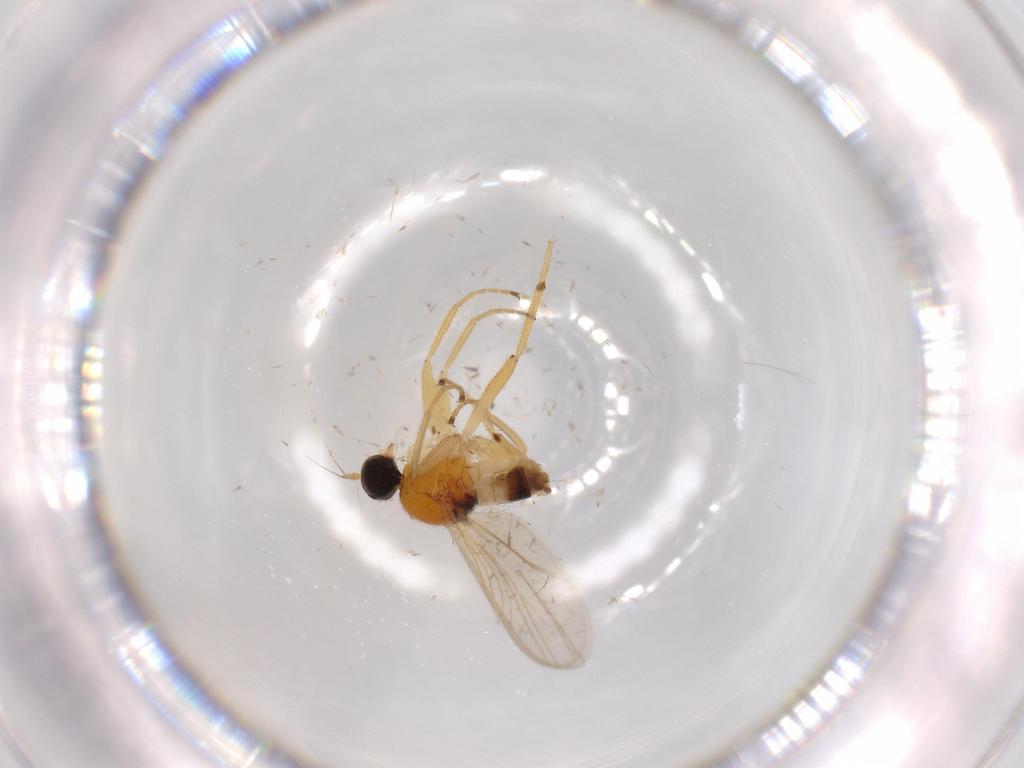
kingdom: Animalia
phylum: Arthropoda
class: Insecta
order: Diptera
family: Hybotidae
